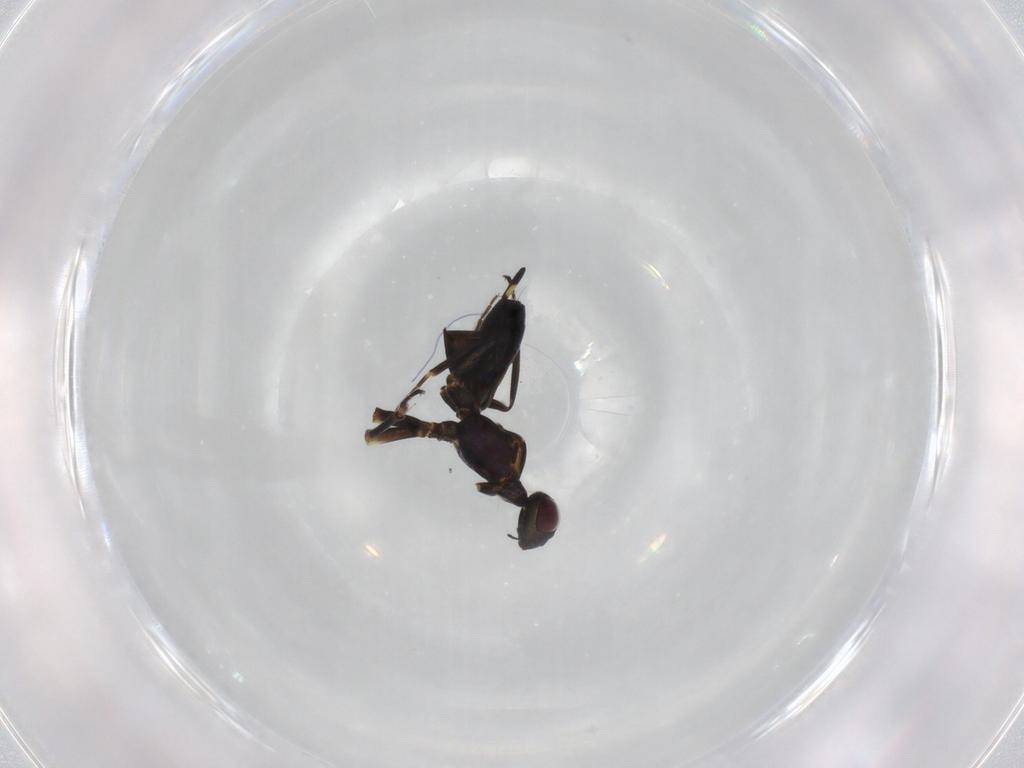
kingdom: Animalia
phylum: Arthropoda
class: Insecta
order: Hymenoptera
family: Eupelmidae
